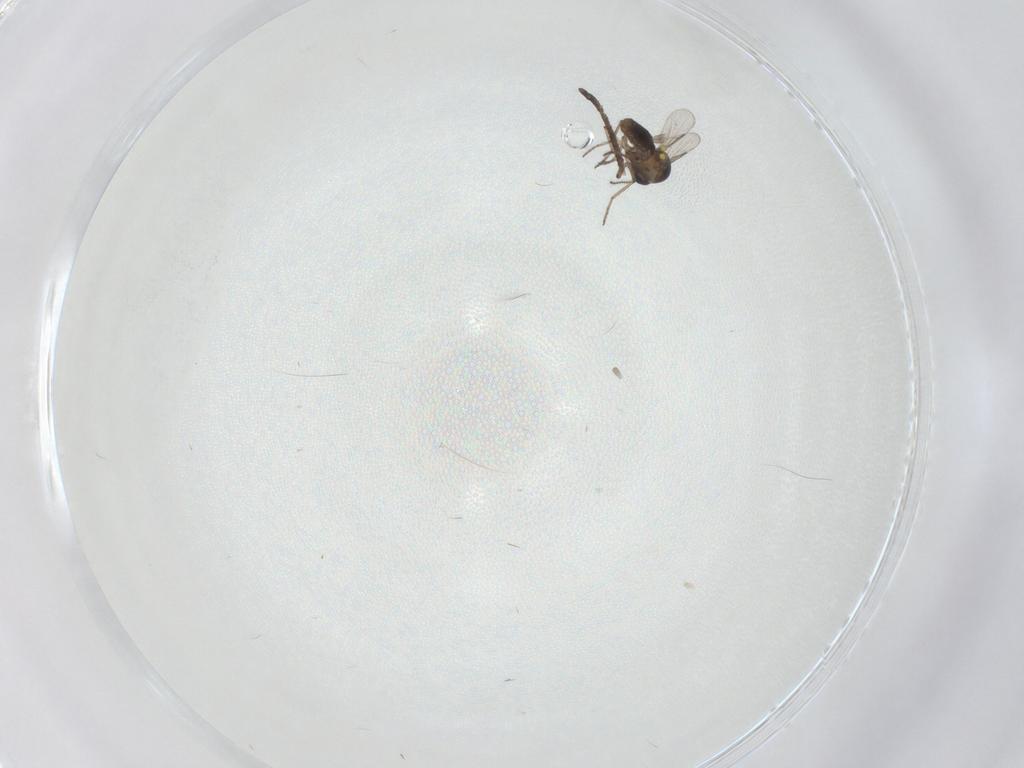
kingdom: Animalia
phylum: Arthropoda
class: Insecta
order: Diptera
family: Ceratopogonidae
